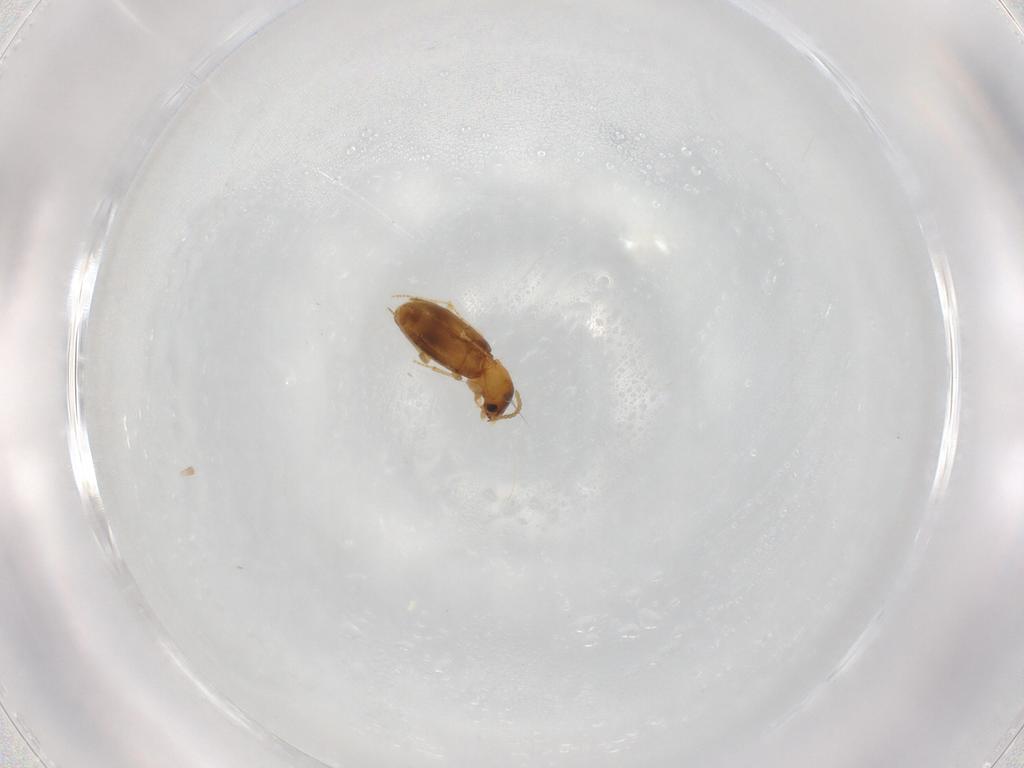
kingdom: Animalia
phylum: Arthropoda
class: Insecta
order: Coleoptera
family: Carabidae
